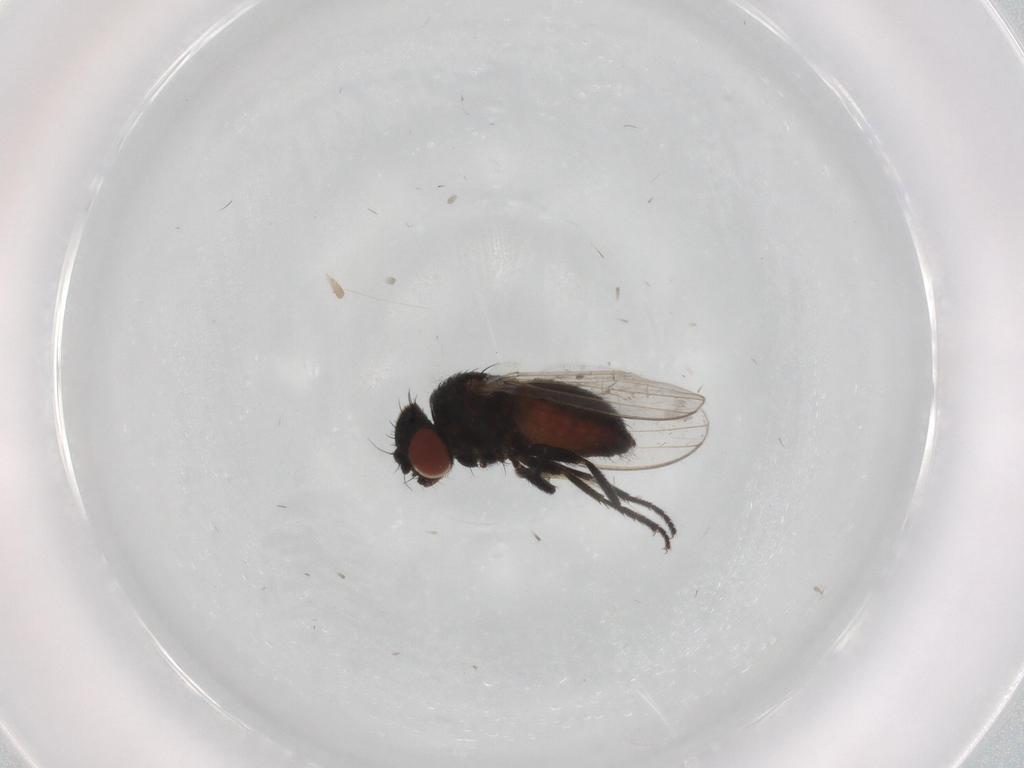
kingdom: Animalia
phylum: Arthropoda
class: Insecta
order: Diptera
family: Milichiidae
